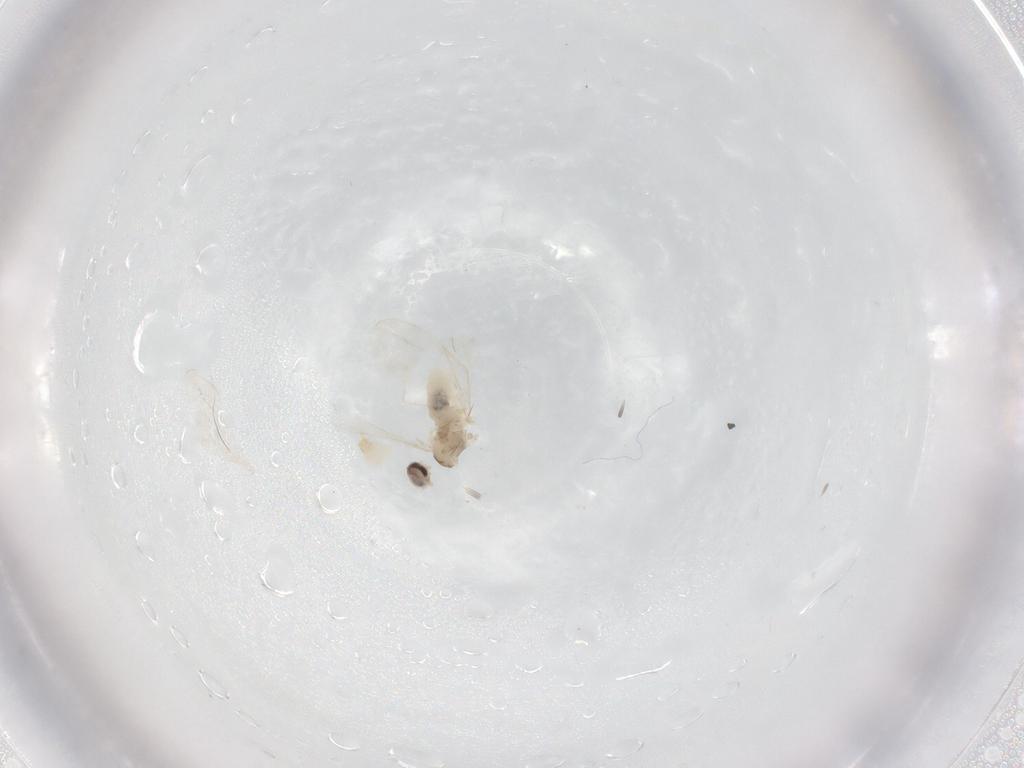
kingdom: Animalia
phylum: Arthropoda
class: Insecta
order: Diptera
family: Cecidomyiidae
